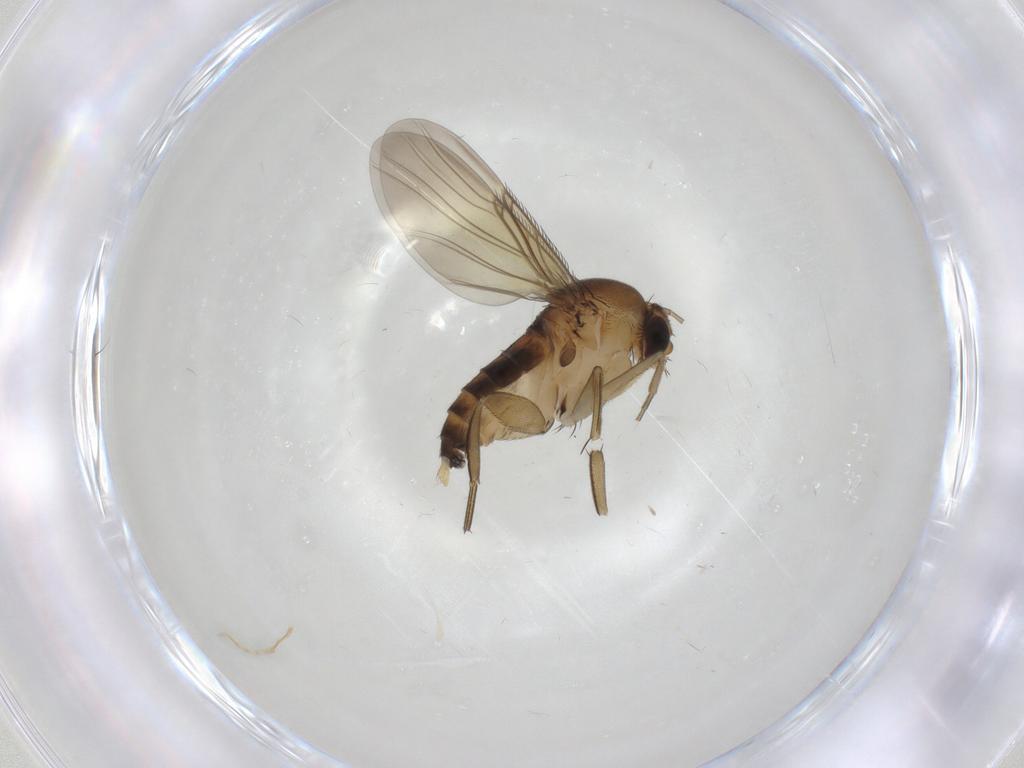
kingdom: Animalia
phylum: Arthropoda
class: Insecta
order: Diptera
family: Phoridae
